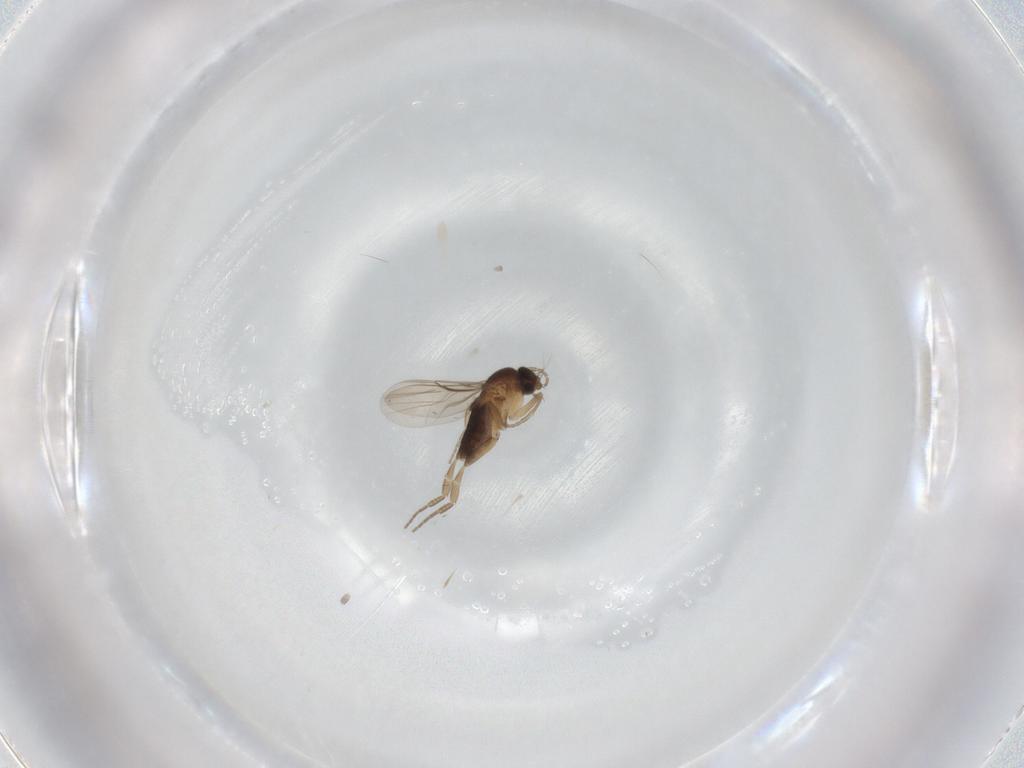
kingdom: Animalia
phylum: Arthropoda
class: Insecta
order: Diptera
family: Phoridae
